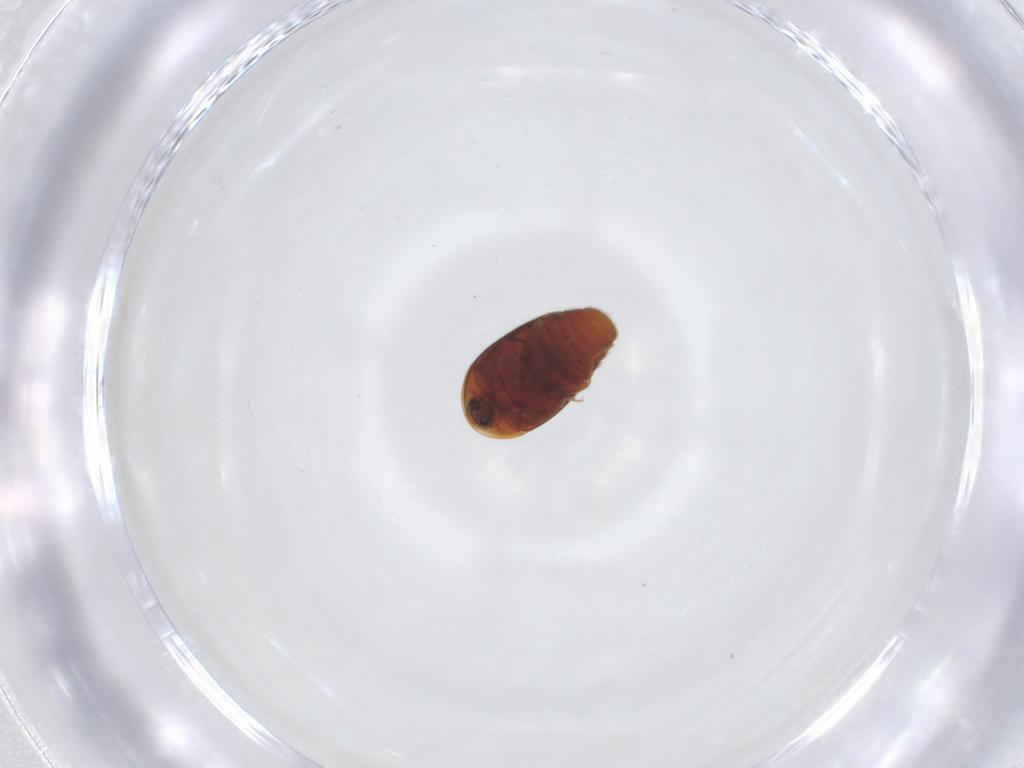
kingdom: Animalia
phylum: Arthropoda
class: Insecta
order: Coleoptera
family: Corylophidae
